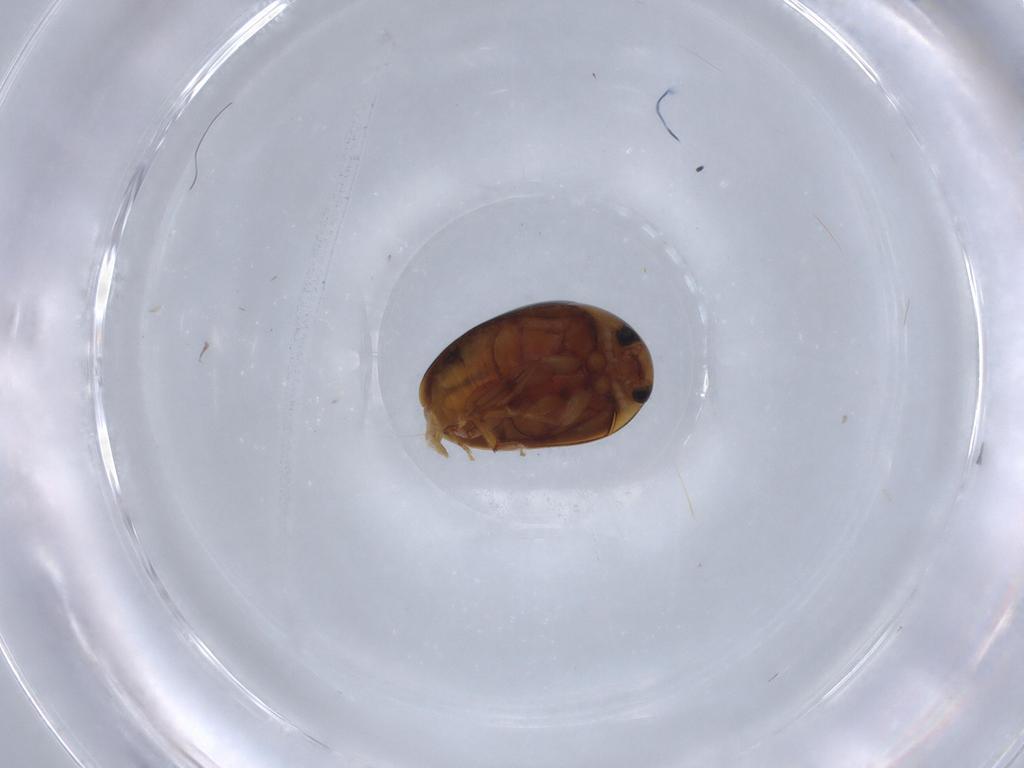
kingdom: Animalia
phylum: Arthropoda
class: Insecta
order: Coleoptera
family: Phalacridae
